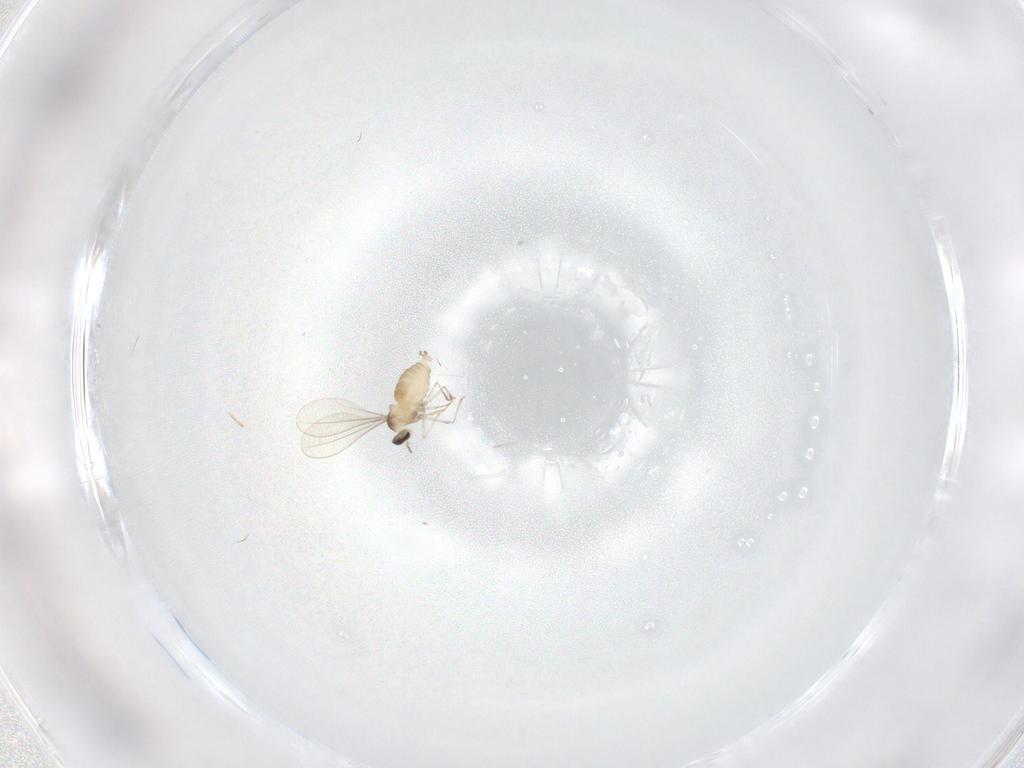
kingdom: Animalia
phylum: Arthropoda
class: Insecta
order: Diptera
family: Cecidomyiidae
